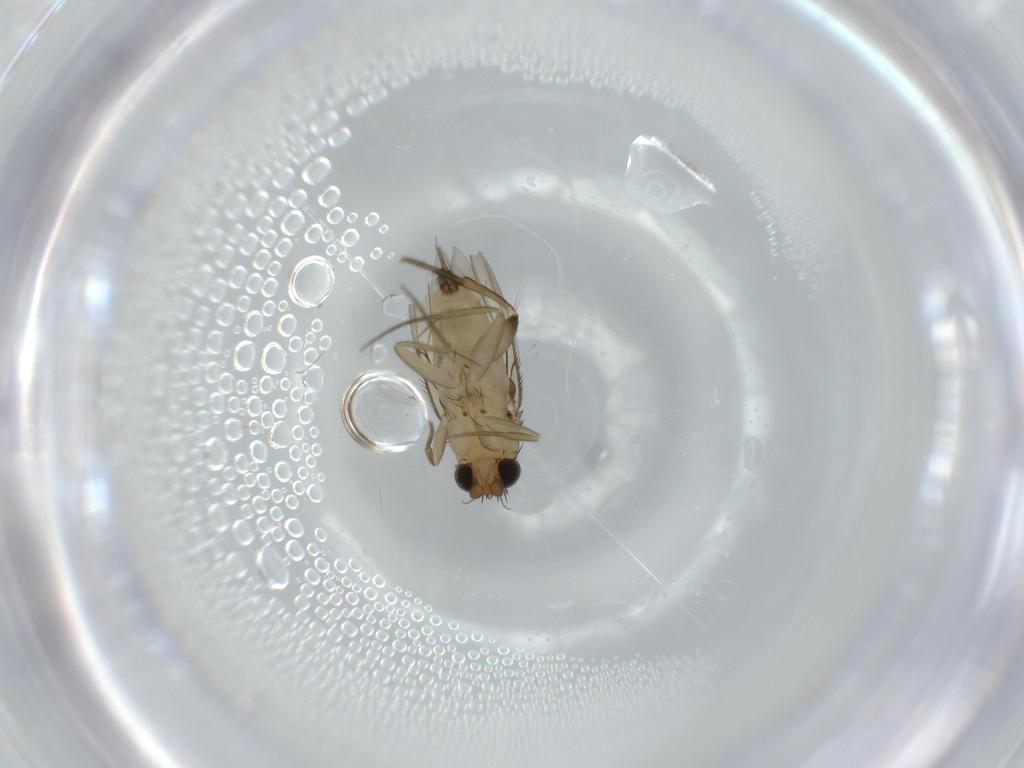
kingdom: Animalia
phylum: Arthropoda
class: Insecta
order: Diptera
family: Phoridae
